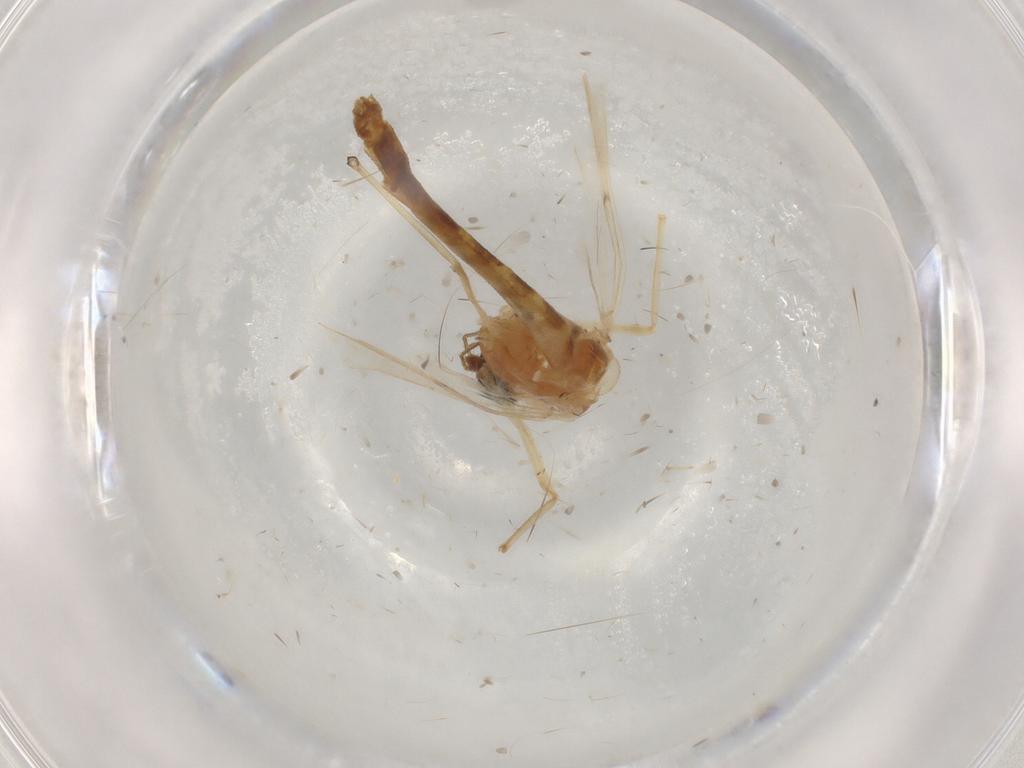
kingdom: Animalia
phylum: Arthropoda
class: Insecta
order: Diptera
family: Chironomidae
